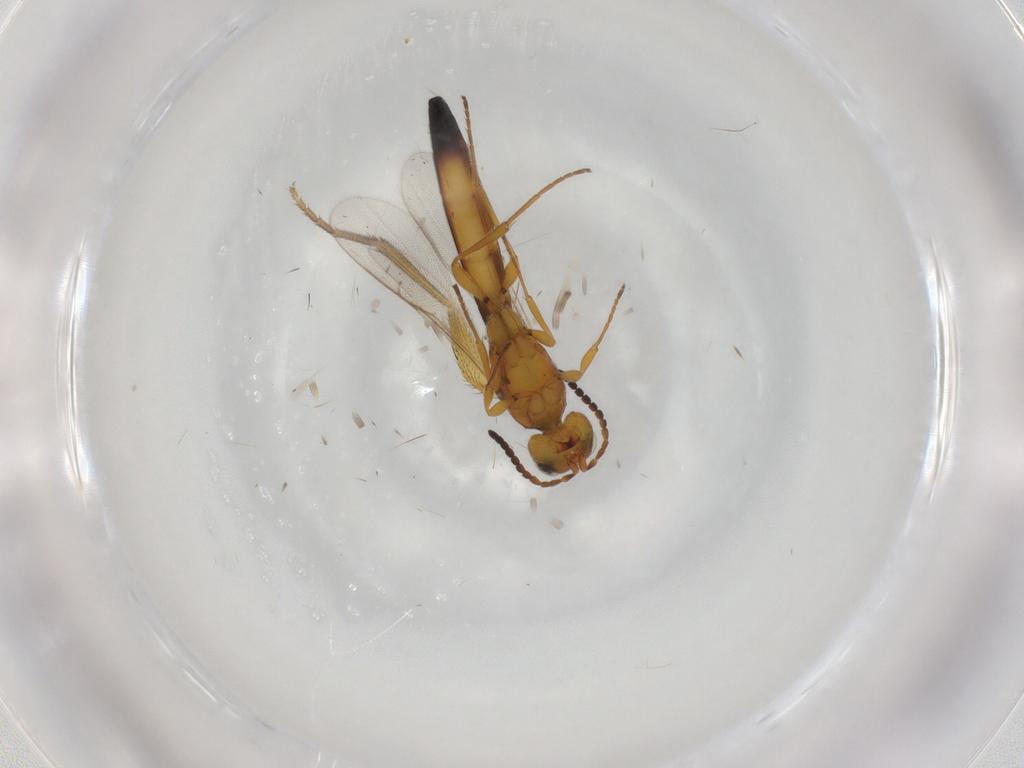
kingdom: Animalia
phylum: Arthropoda
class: Insecta
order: Hymenoptera
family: Scelionidae
